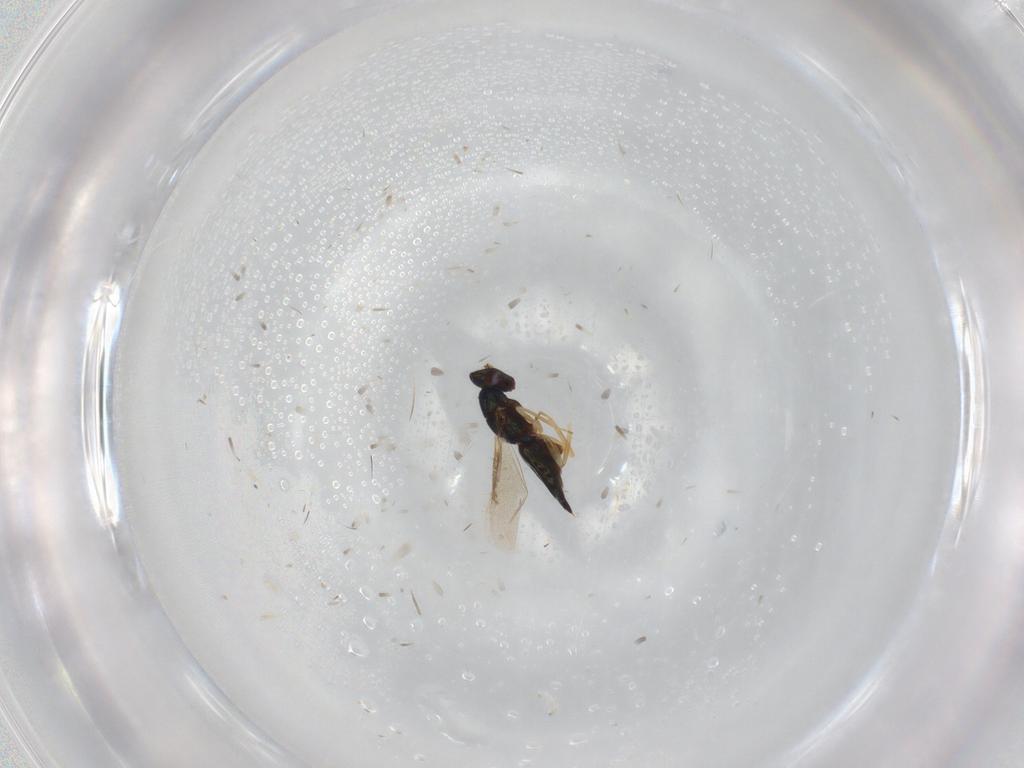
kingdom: Animalia
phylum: Arthropoda
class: Insecta
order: Hymenoptera
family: Eulophidae
